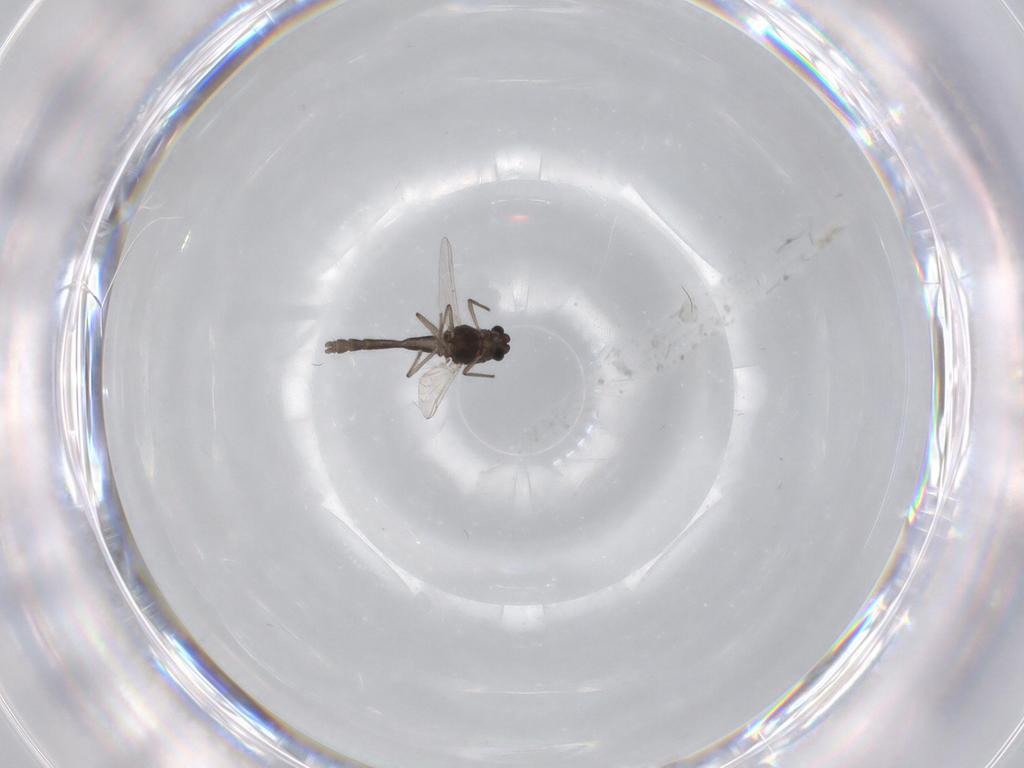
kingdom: Animalia
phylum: Arthropoda
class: Insecta
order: Diptera
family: Chironomidae
